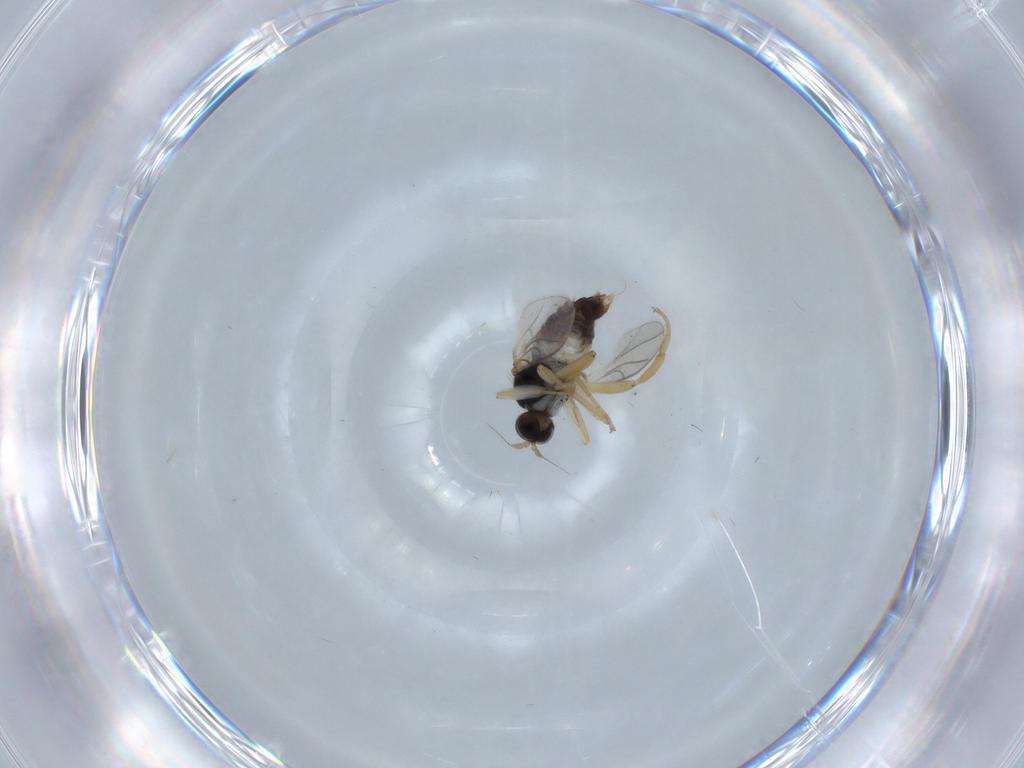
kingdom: Animalia
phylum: Arthropoda
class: Insecta
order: Diptera
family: Hybotidae
